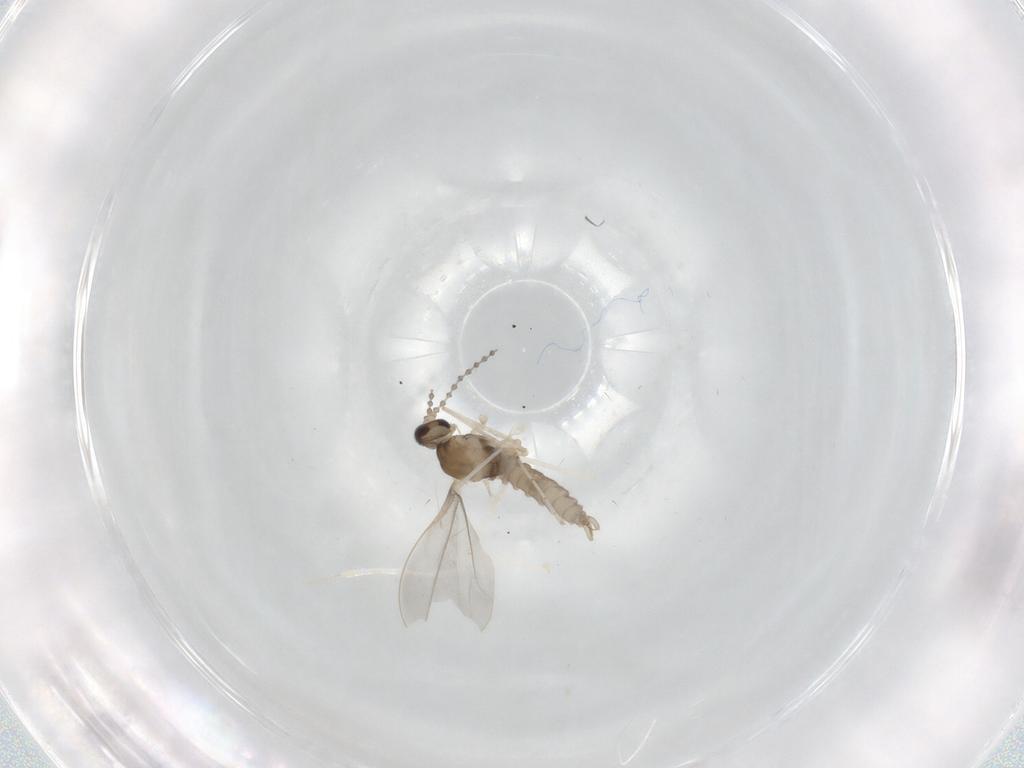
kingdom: Animalia
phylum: Arthropoda
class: Insecta
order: Diptera
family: Cecidomyiidae
